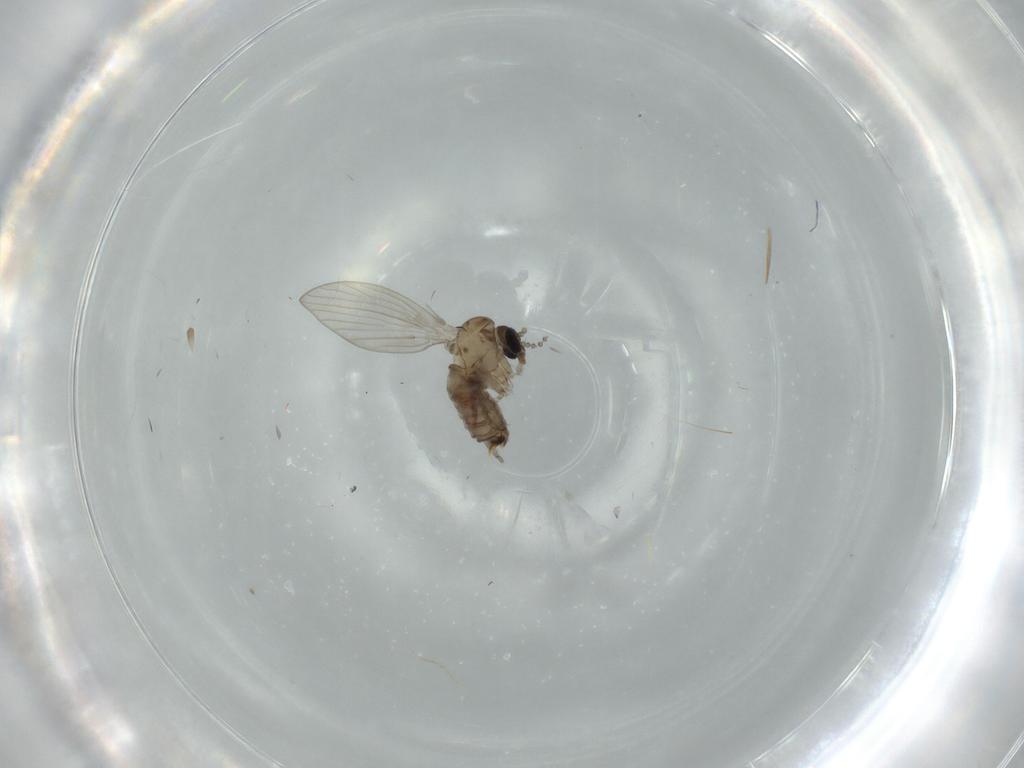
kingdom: Animalia
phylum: Arthropoda
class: Insecta
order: Diptera
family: Psychodidae
